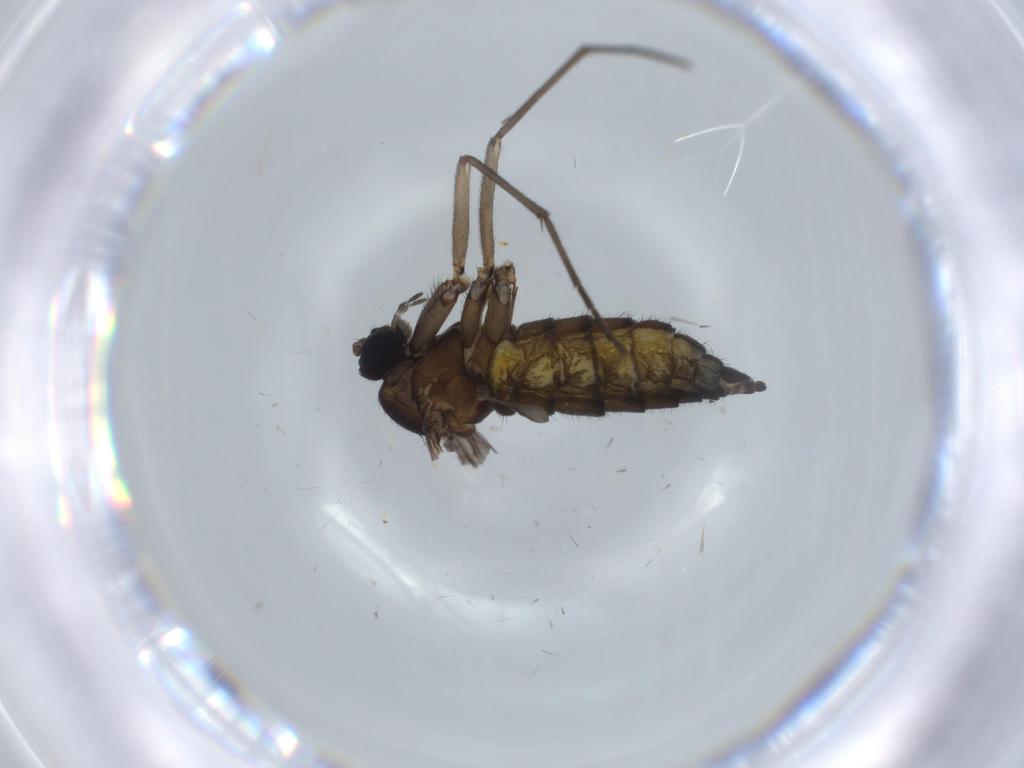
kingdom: Animalia
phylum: Arthropoda
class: Insecta
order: Diptera
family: Sciaridae
